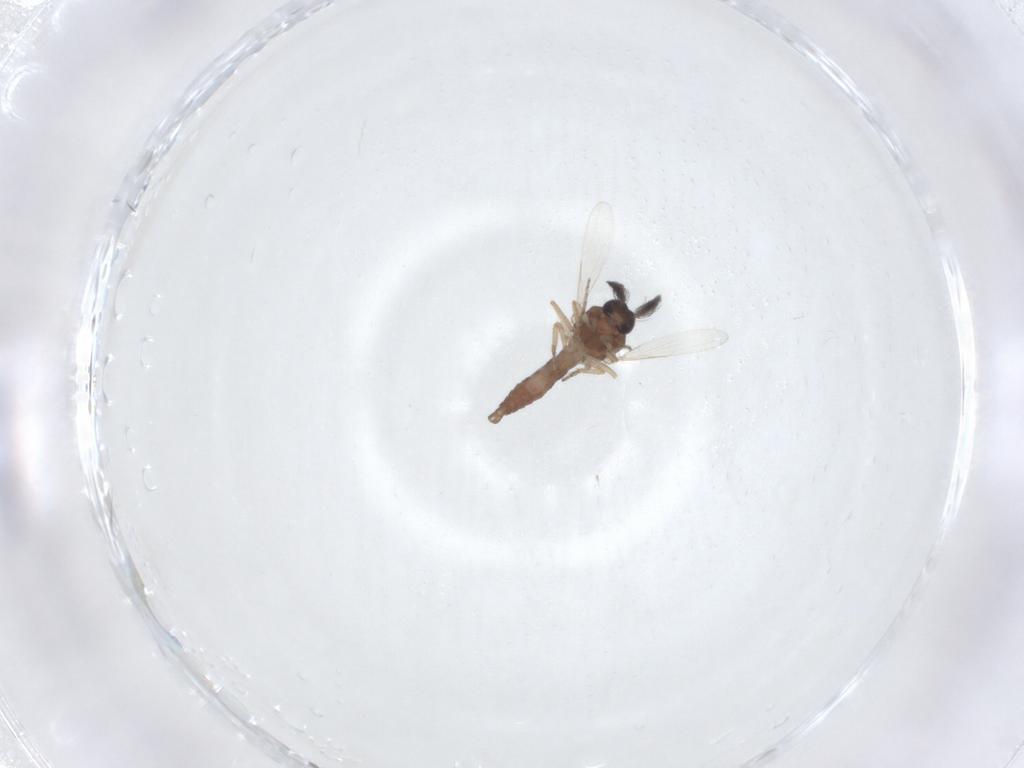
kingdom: Animalia
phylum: Arthropoda
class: Insecta
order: Diptera
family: Ceratopogonidae
